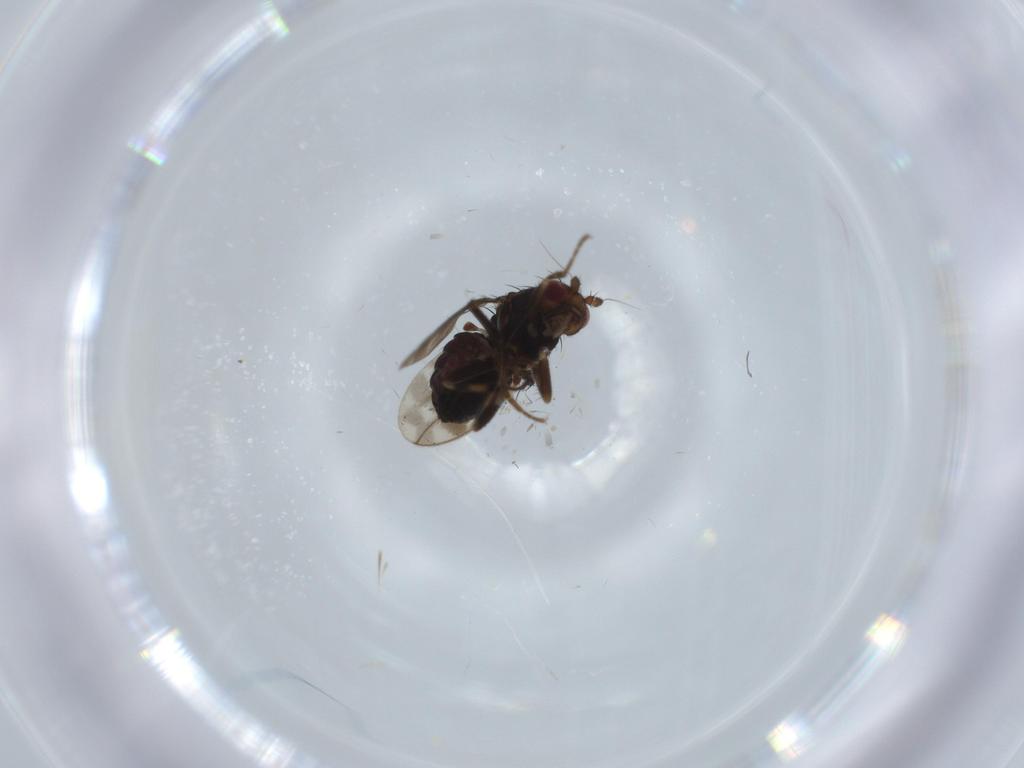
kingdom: Animalia
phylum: Arthropoda
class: Insecta
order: Diptera
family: Sphaeroceridae
